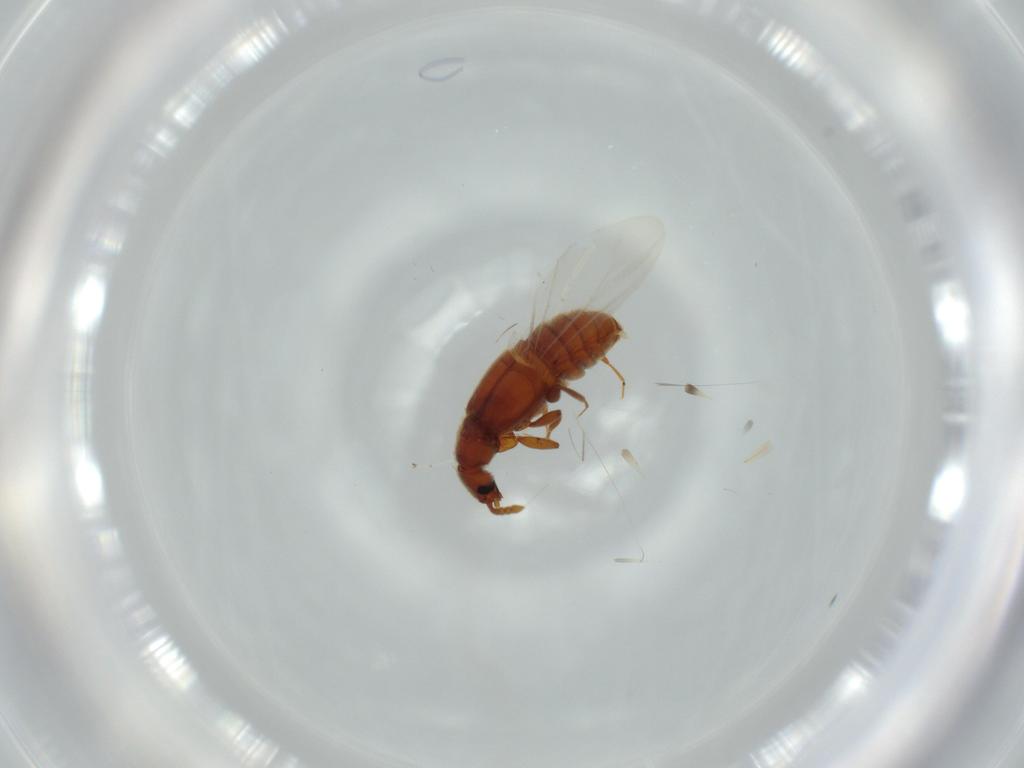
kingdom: Animalia
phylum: Arthropoda
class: Insecta
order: Coleoptera
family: Staphylinidae
